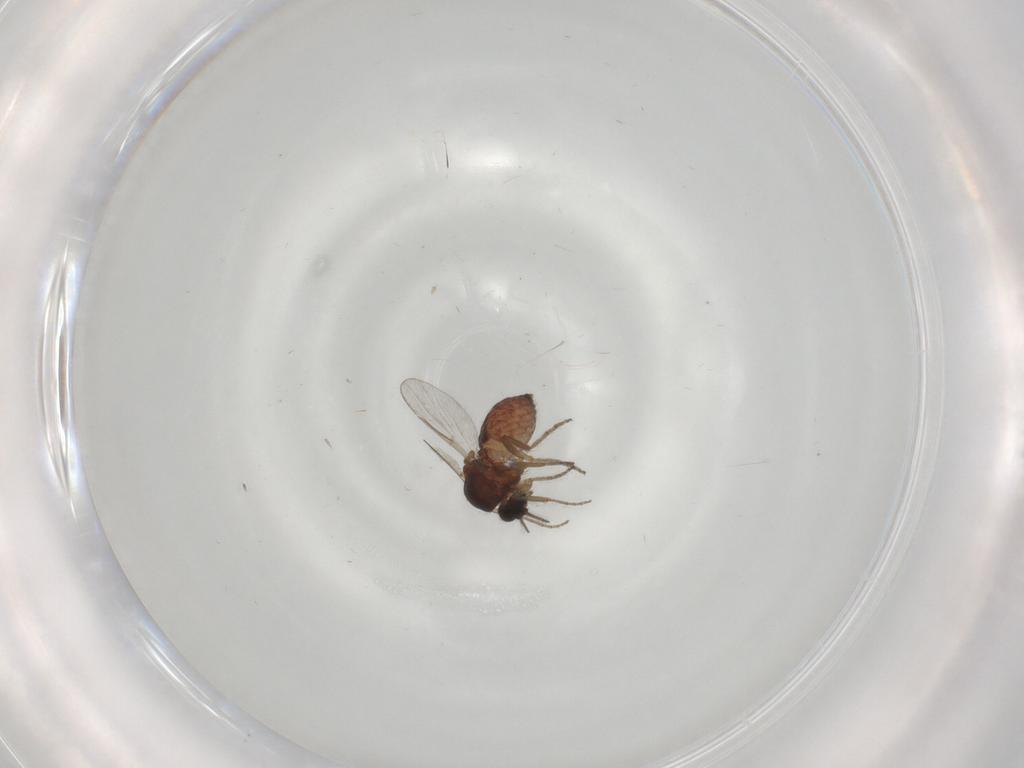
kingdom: Animalia
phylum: Arthropoda
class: Insecta
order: Diptera
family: Ceratopogonidae
